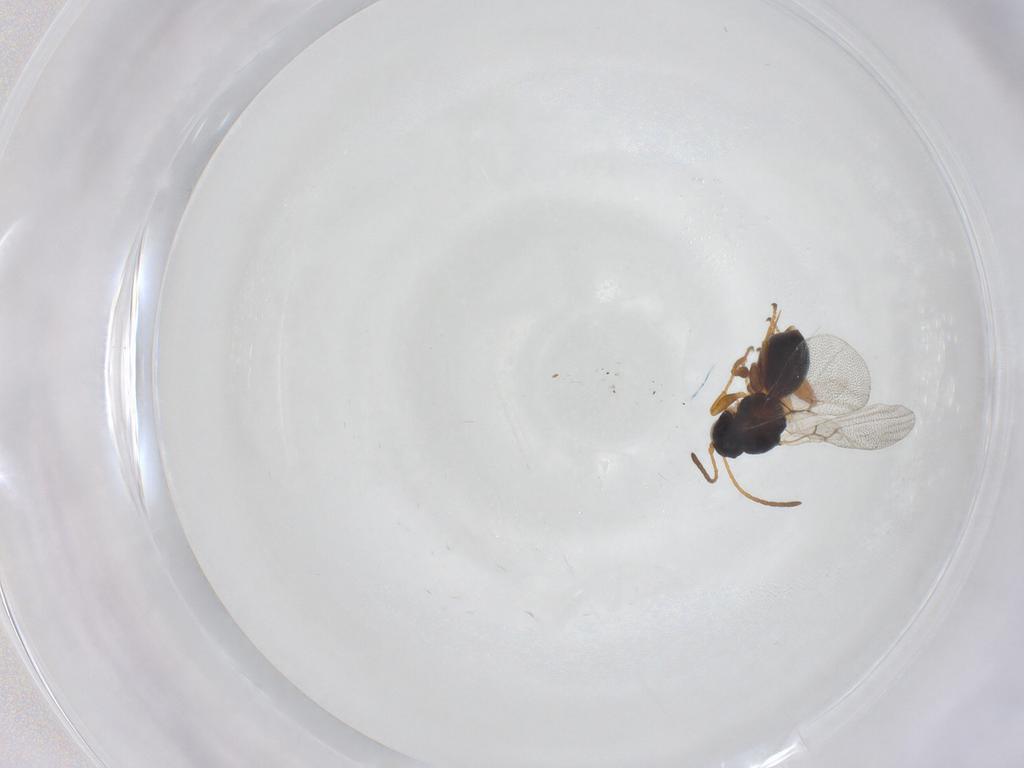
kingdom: Animalia
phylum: Arthropoda
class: Insecta
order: Hymenoptera
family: Cynipidae
